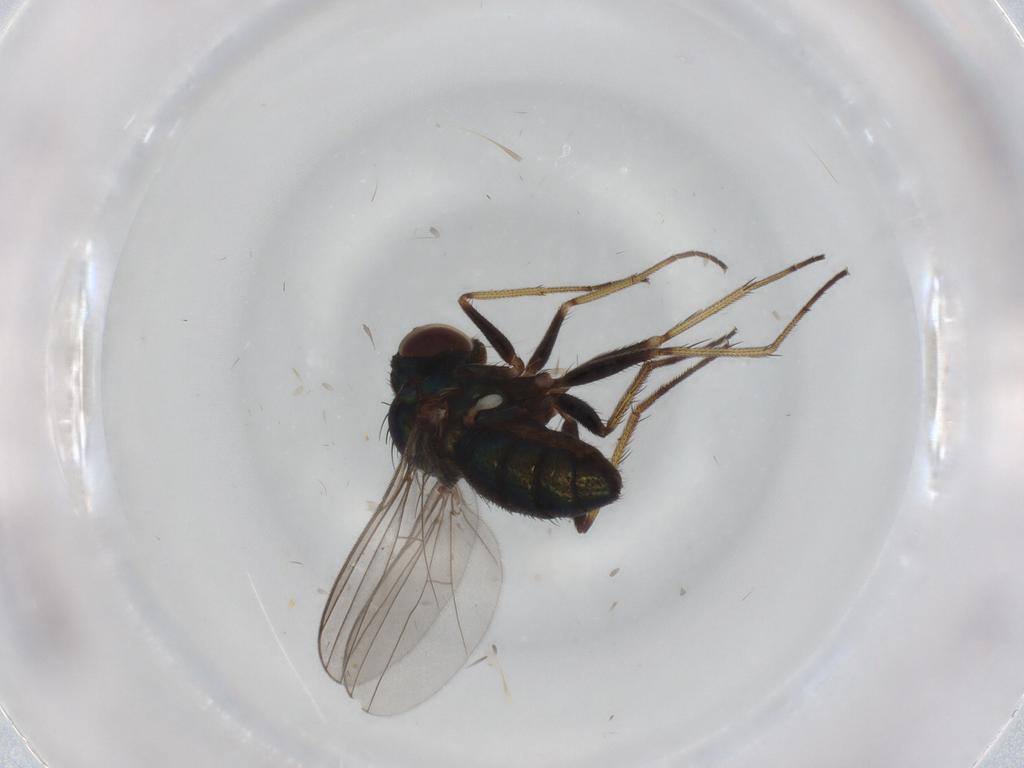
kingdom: Animalia
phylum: Arthropoda
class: Insecta
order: Diptera
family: Dolichopodidae
